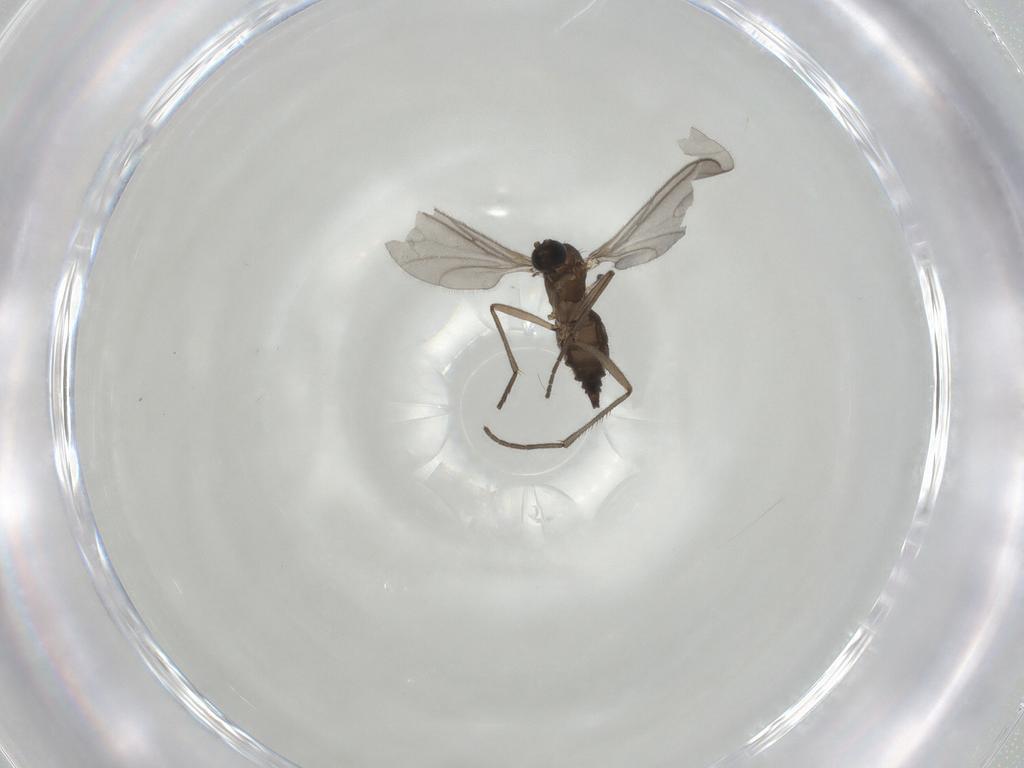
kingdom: Animalia
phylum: Arthropoda
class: Insecta
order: Diptera
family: Sciaridae
